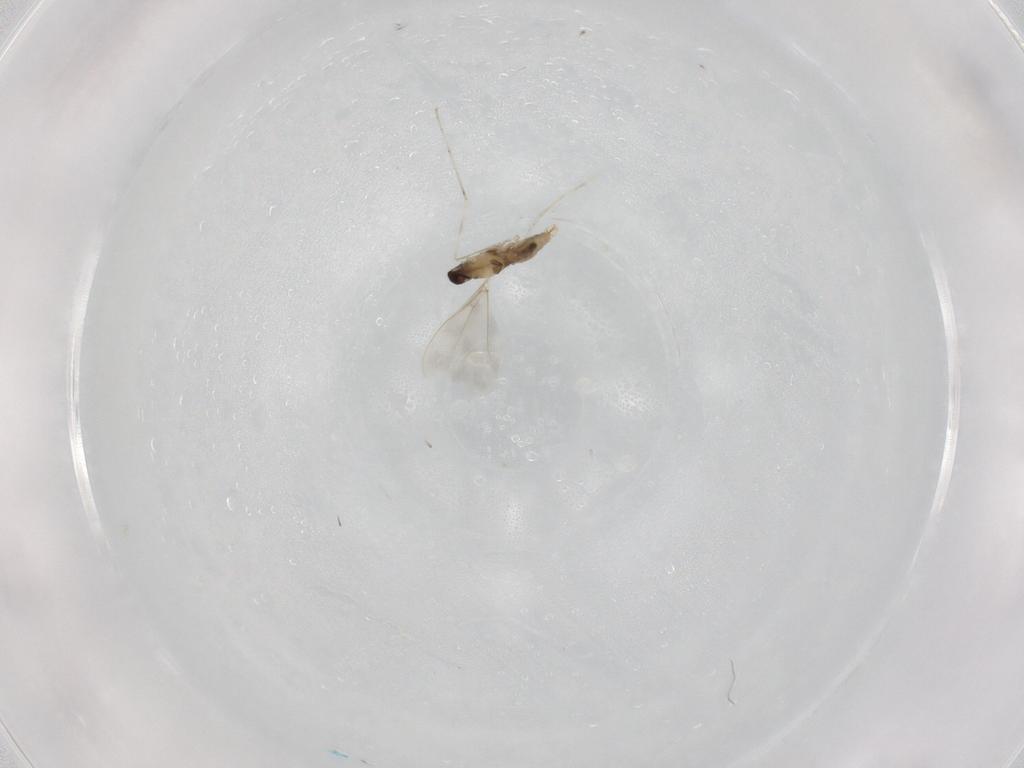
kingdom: Animalia
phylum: Arthropoda
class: Insecta
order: Diptera
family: Cecidomyiidae
